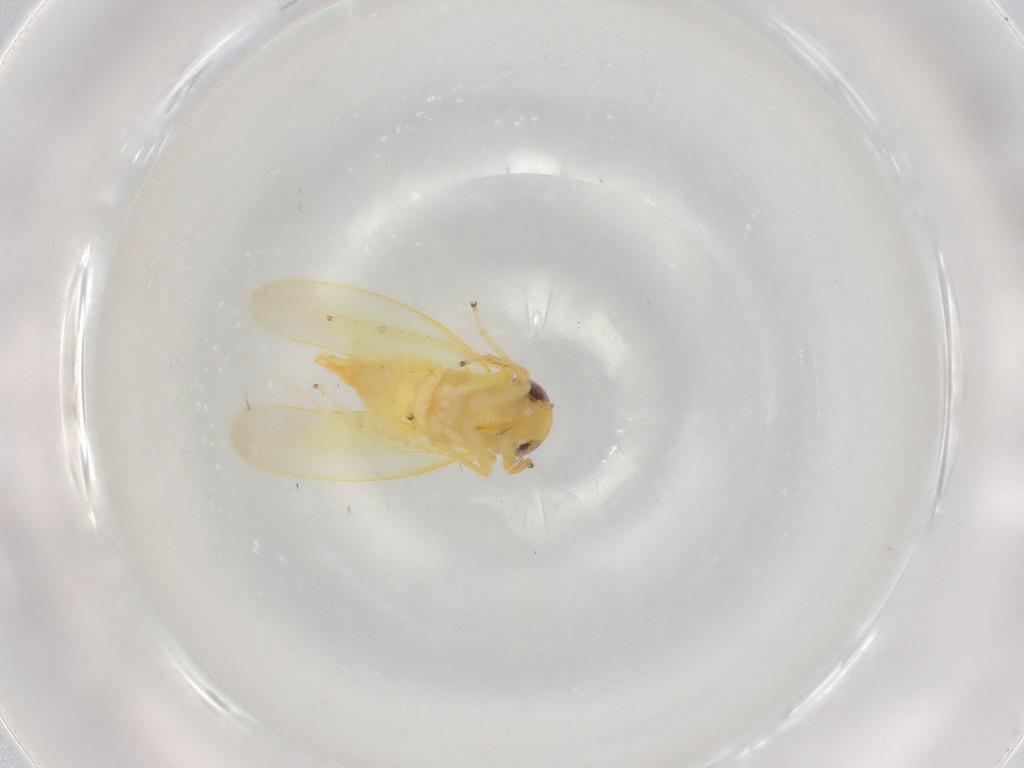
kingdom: Animalia
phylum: Arthropoda
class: Insecta
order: Hemiptera
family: Cicadellidae
